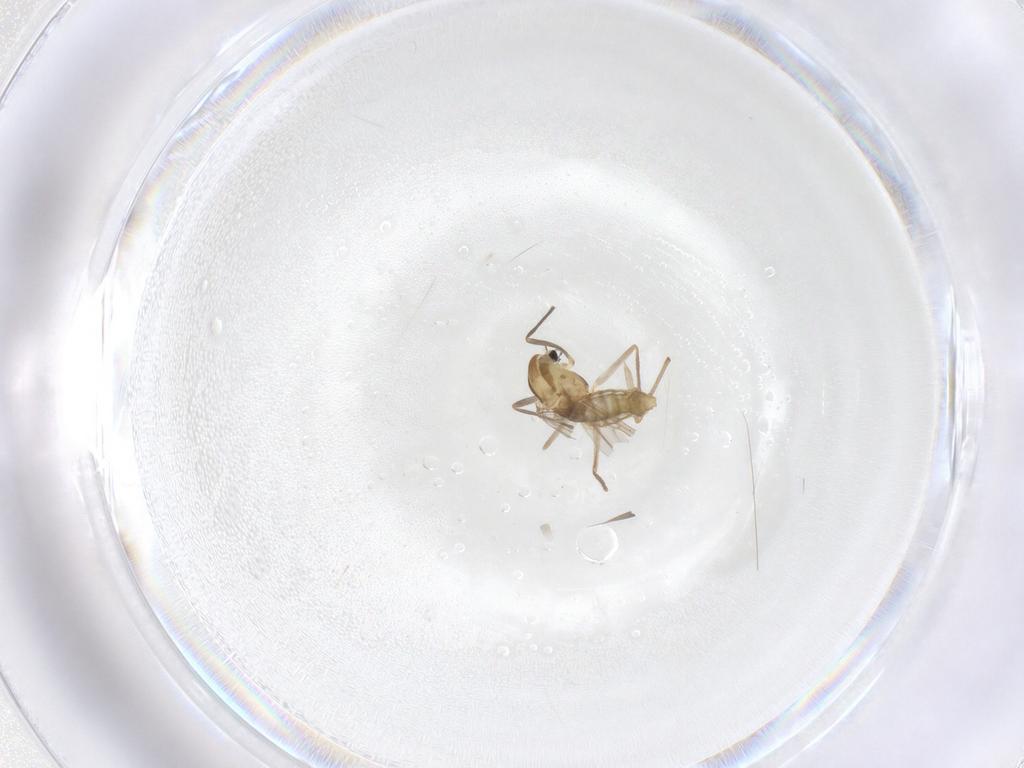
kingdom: Animalia
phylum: Arthropoda
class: Insecta
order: Diptera
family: Chironomidae
